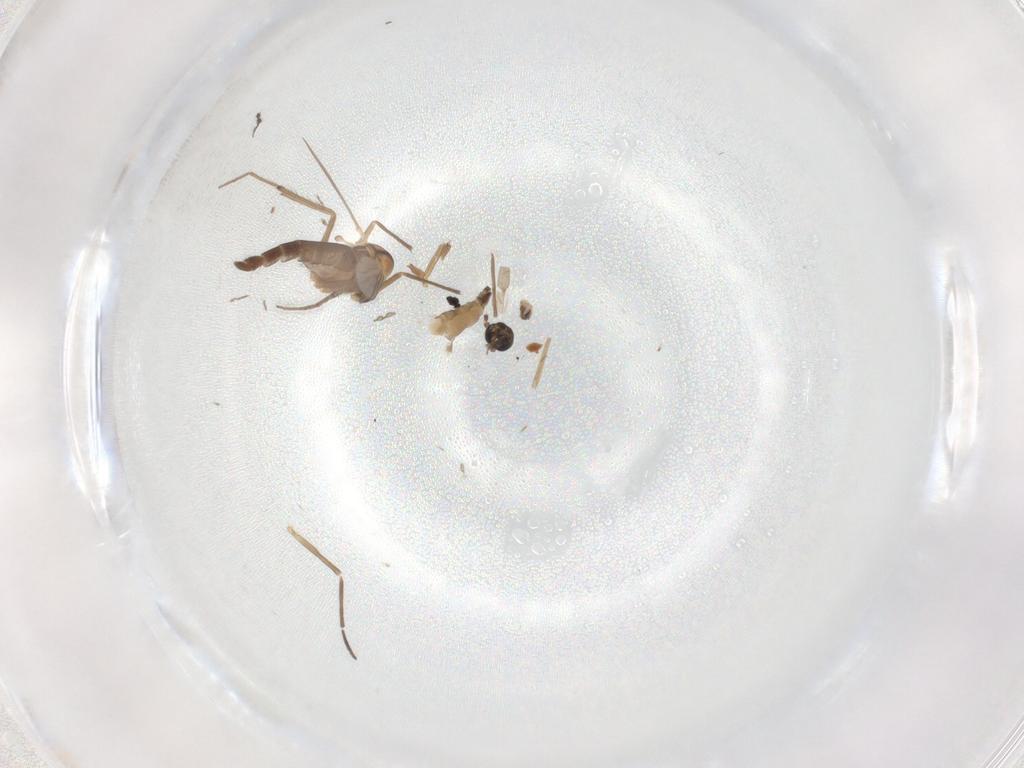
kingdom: Animalia
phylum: Arthropoda
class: Insecta
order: Diptera
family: Chironomidae
